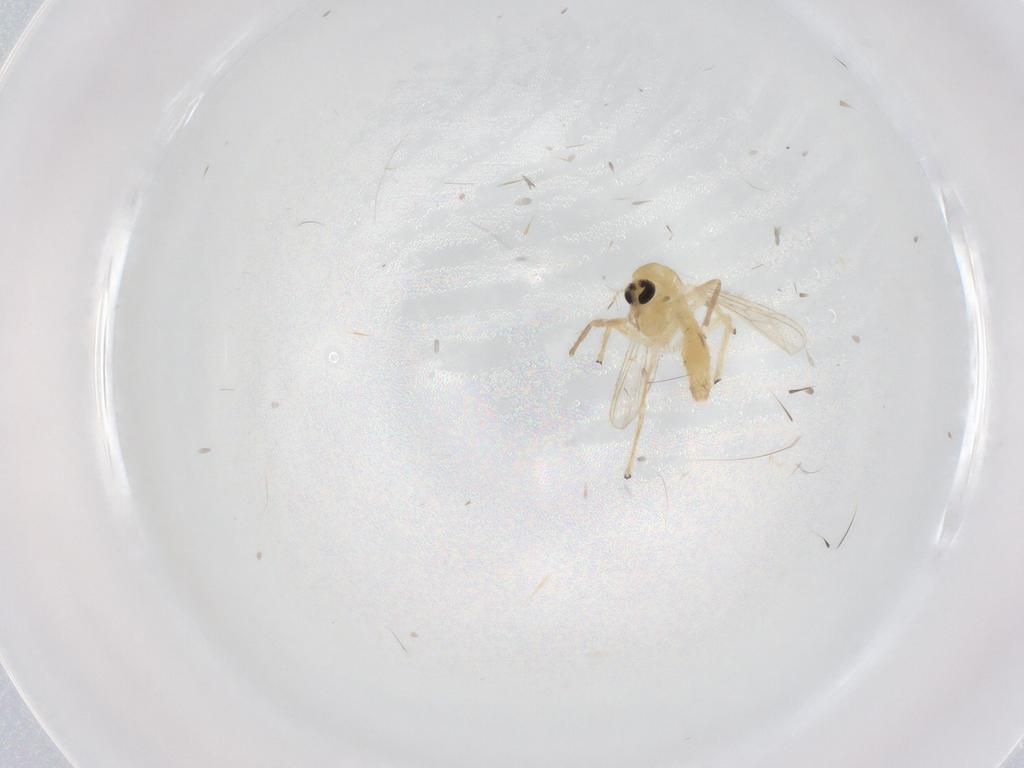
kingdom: Animalia
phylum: Arthropoda
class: Insecta
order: Diptera
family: Chironomidae
